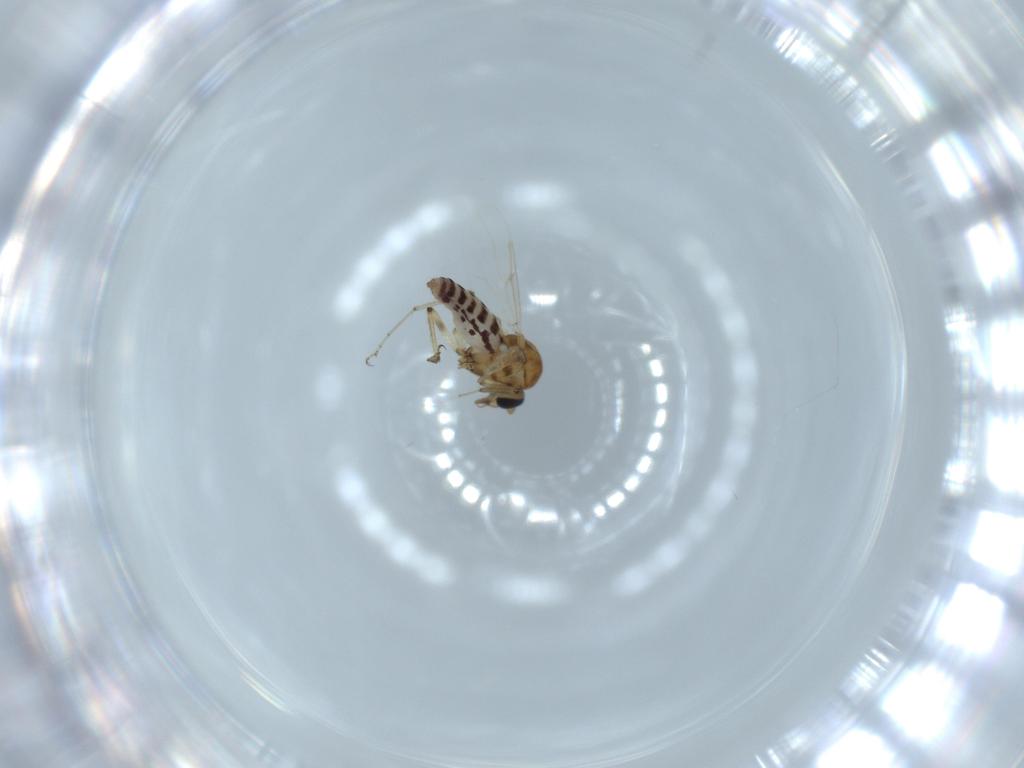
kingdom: Animalia
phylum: Arthropoda
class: Insecta
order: Diptera
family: Ceratopogonidae
